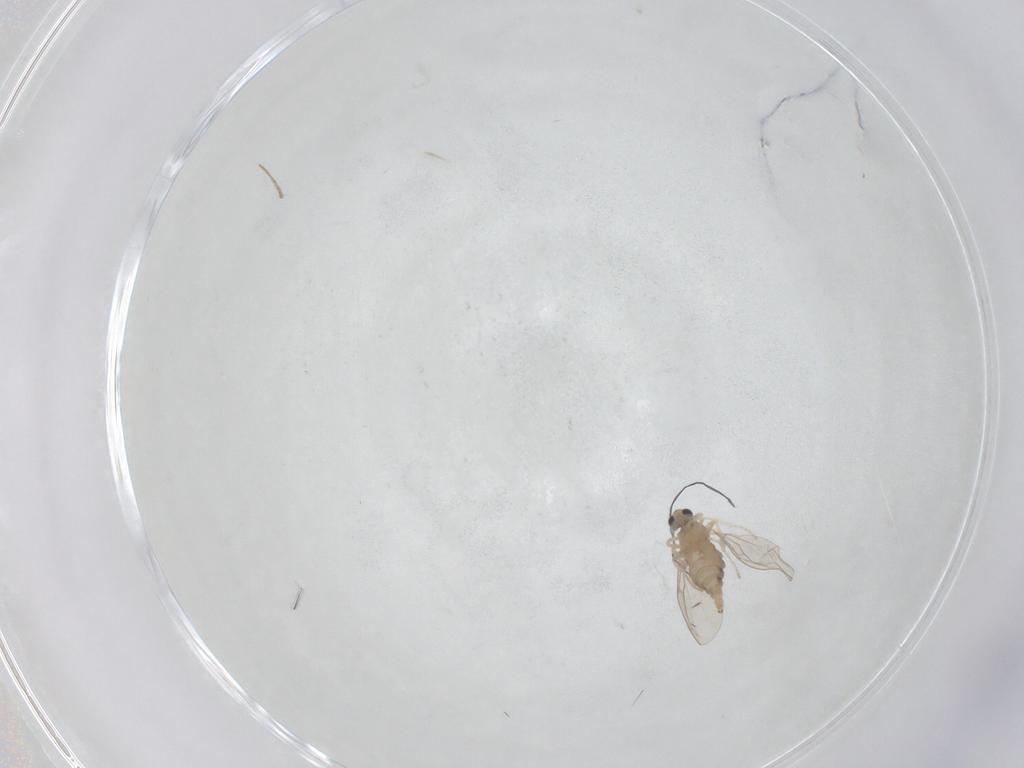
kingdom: Animalia
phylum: Arthropoda
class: Insecta
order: Diptera
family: Cecidomyiidae
